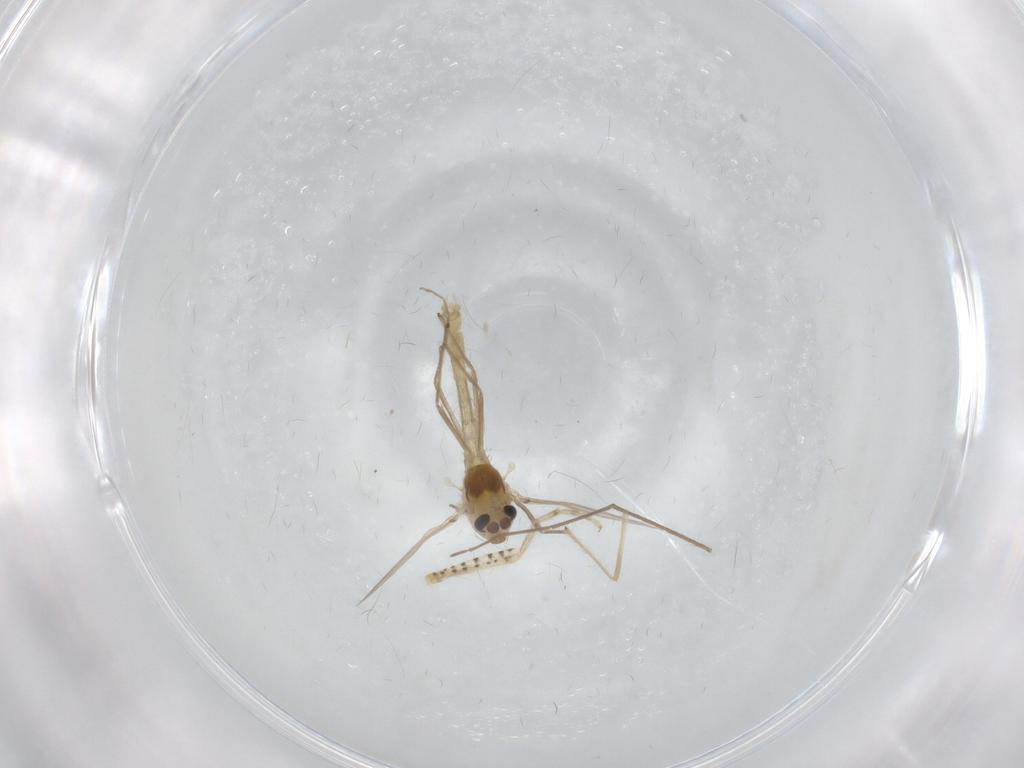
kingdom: Animalia
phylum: Arthropoda
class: Insecta
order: Diptera
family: Chironomidae
